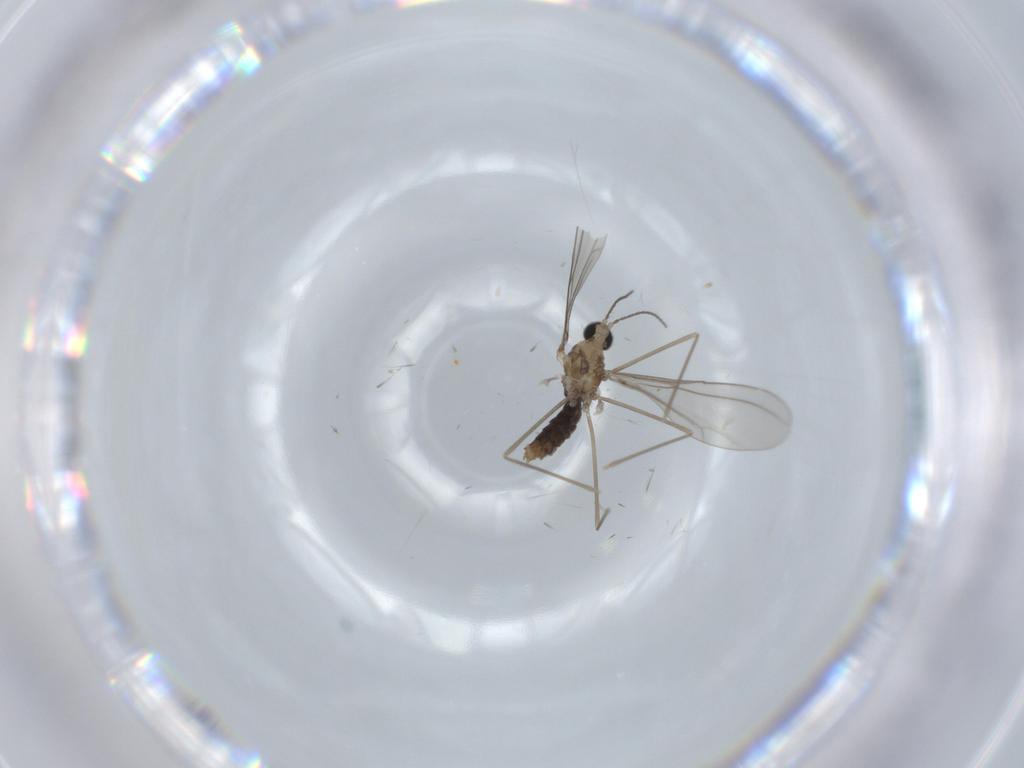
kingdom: Animalia
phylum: Arthropoda
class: Insecta
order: Diptera
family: Cecidomyiidae
